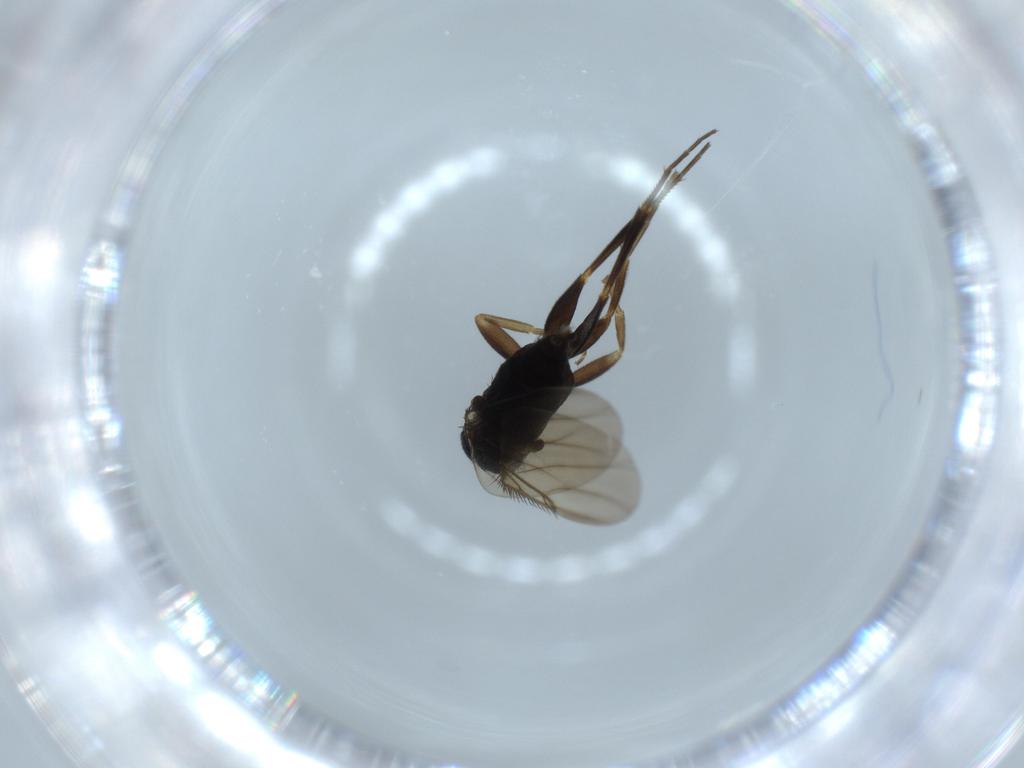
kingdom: Animalia
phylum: Arthropoda
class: Insecta
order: Diptera
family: Phoridae
